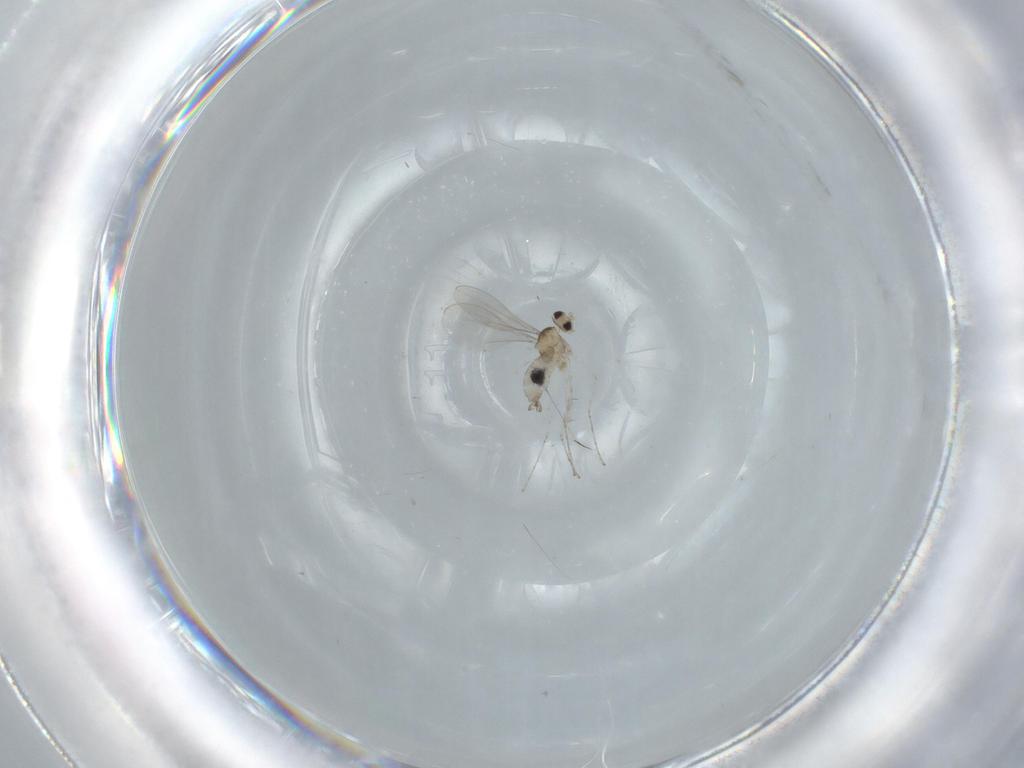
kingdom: Animalia
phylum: Arthropoda
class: Insecta
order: Diptera
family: Cecidomyiidae
